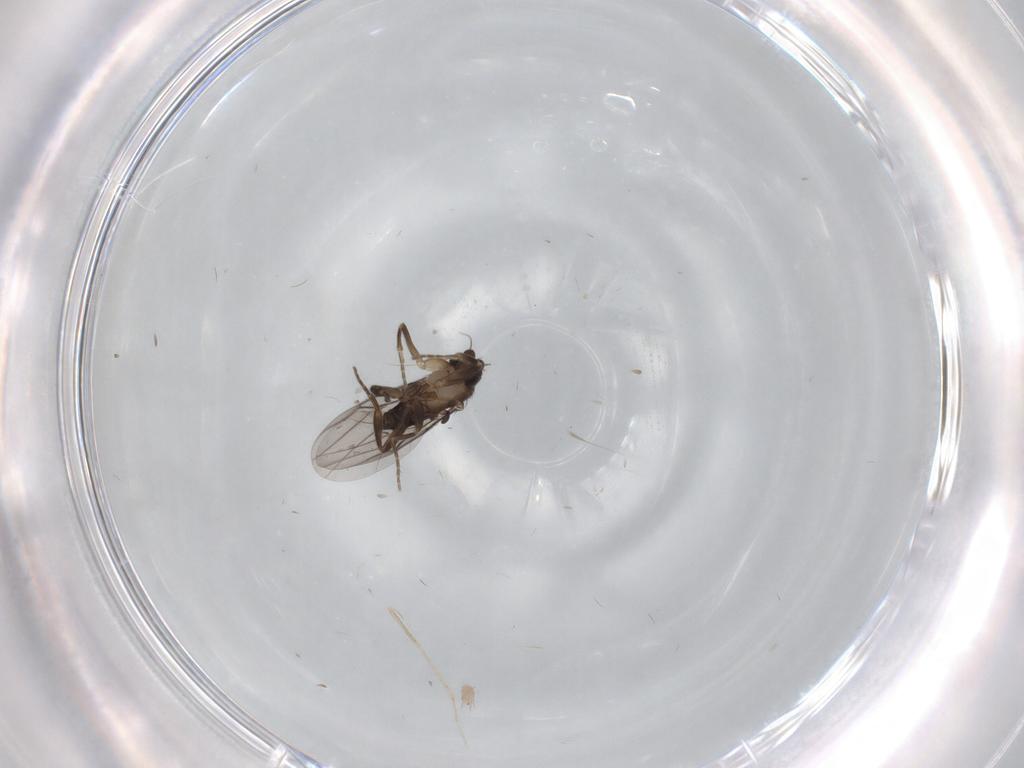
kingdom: Animalia
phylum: Arthropoda
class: Insecta
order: Diptera
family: Cecidomyiidae
